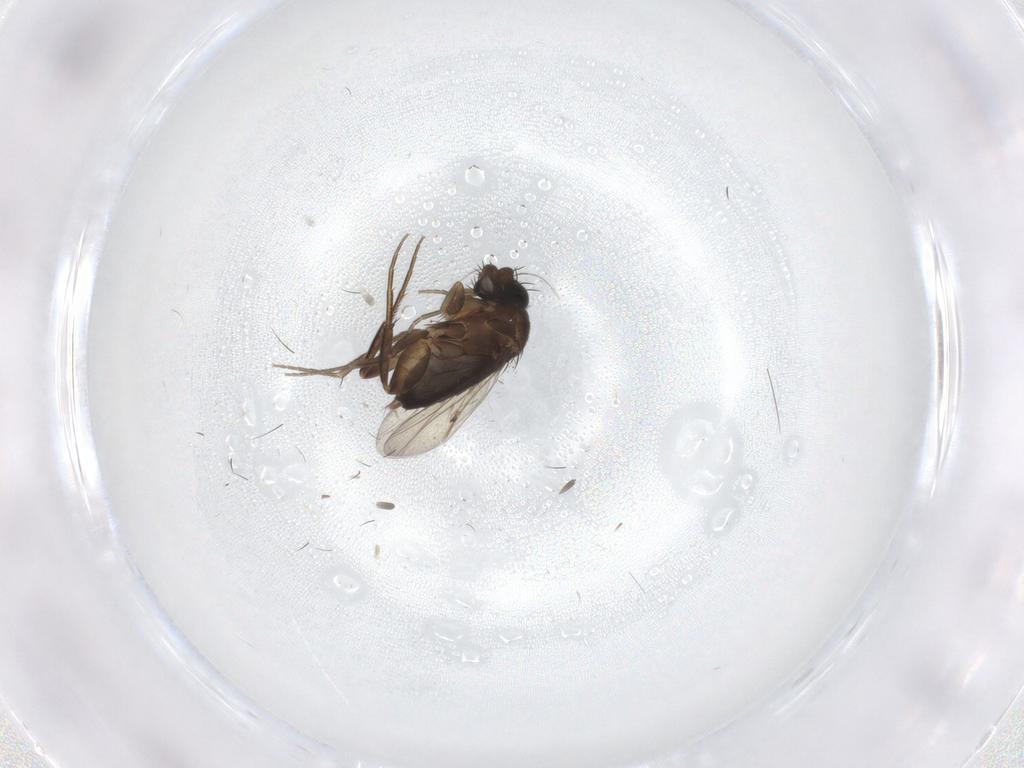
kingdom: Animalia
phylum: Arthropoda
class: Insecta
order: Diptera
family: Phoridae
